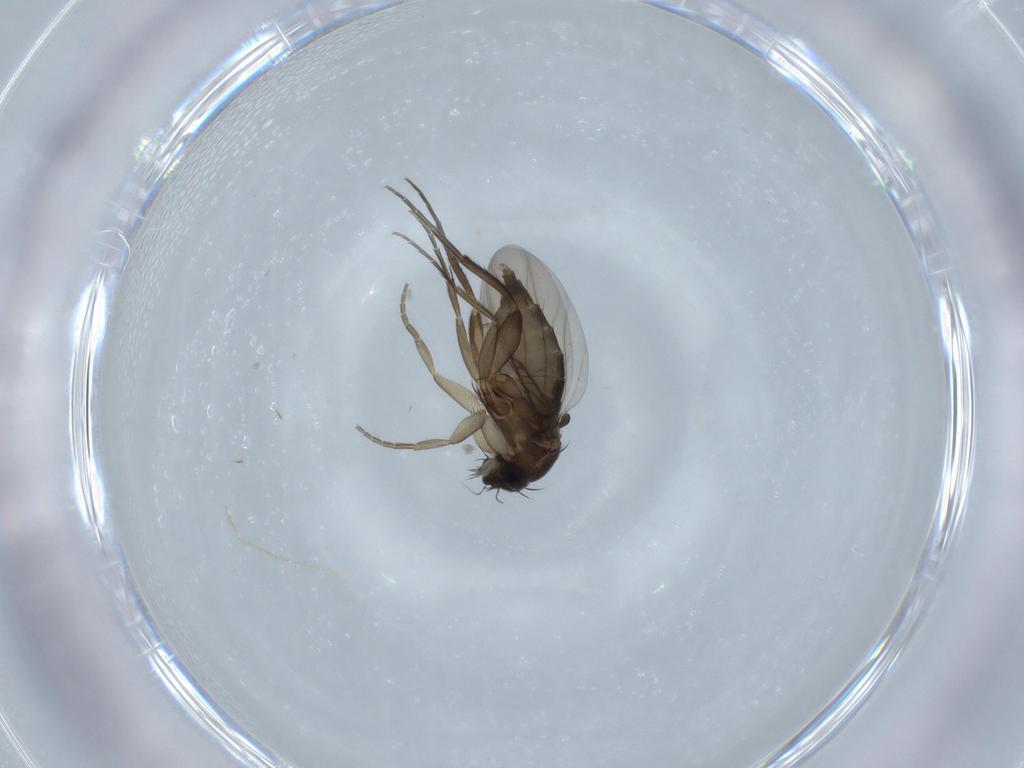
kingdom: Animalia
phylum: Arthropoda
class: Insecta
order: Diptera
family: Phoridae
